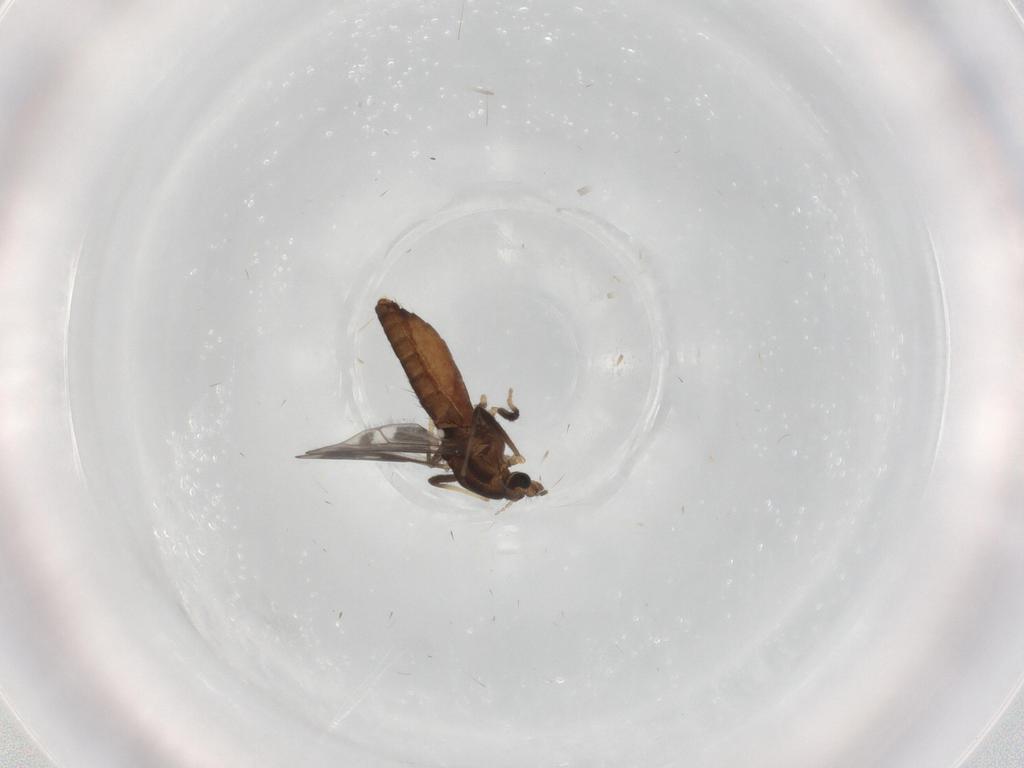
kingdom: Animalia
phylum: Arthropoda
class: Insecta
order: Diptera
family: Chironomidae
